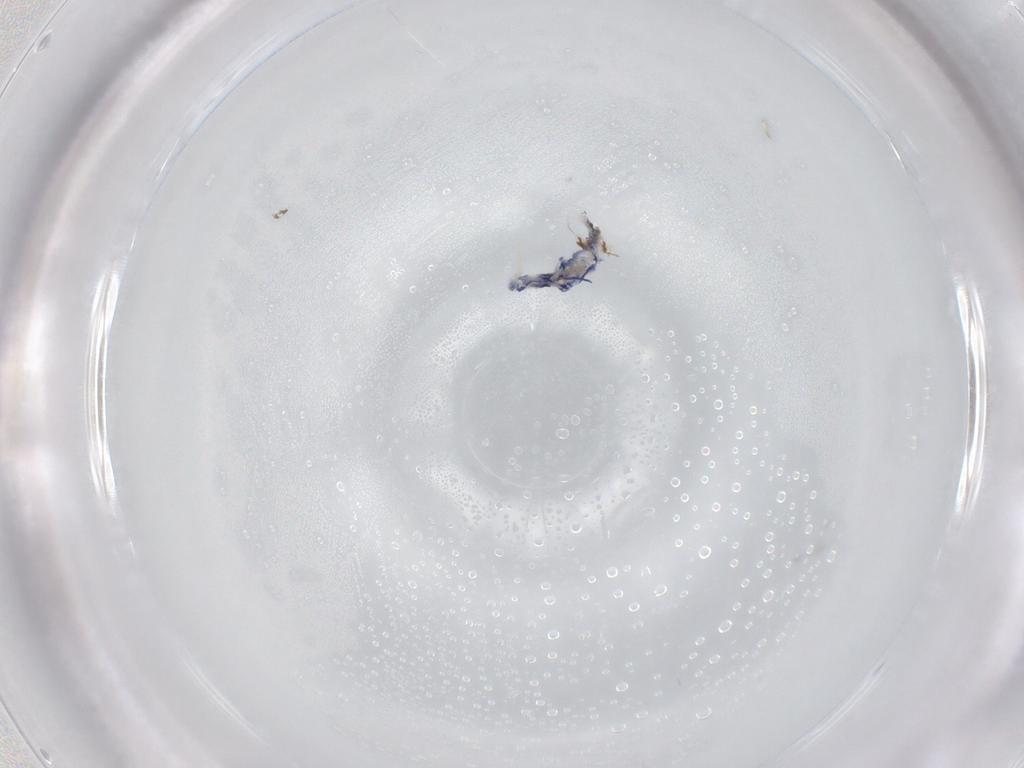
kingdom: Animalia
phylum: Arthropoda
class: Collembola
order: Entomobryomorpha
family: Entomobryidae
